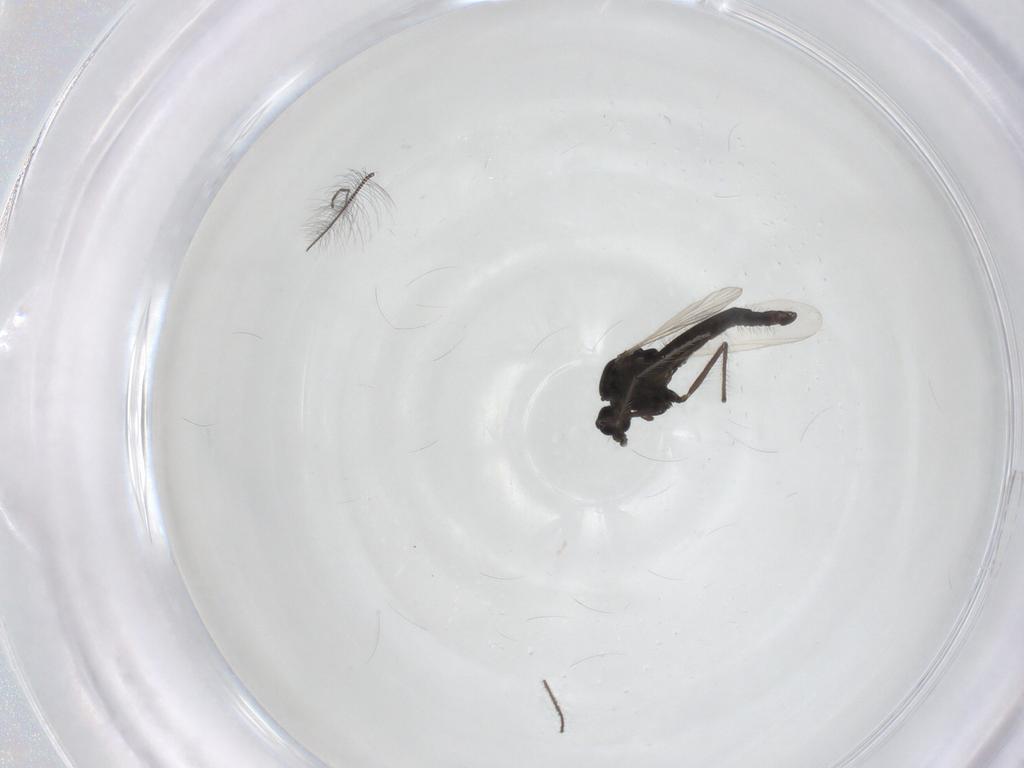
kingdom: Animalia
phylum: Arthropoda
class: Insecta
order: Diptera
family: Chironomidae
